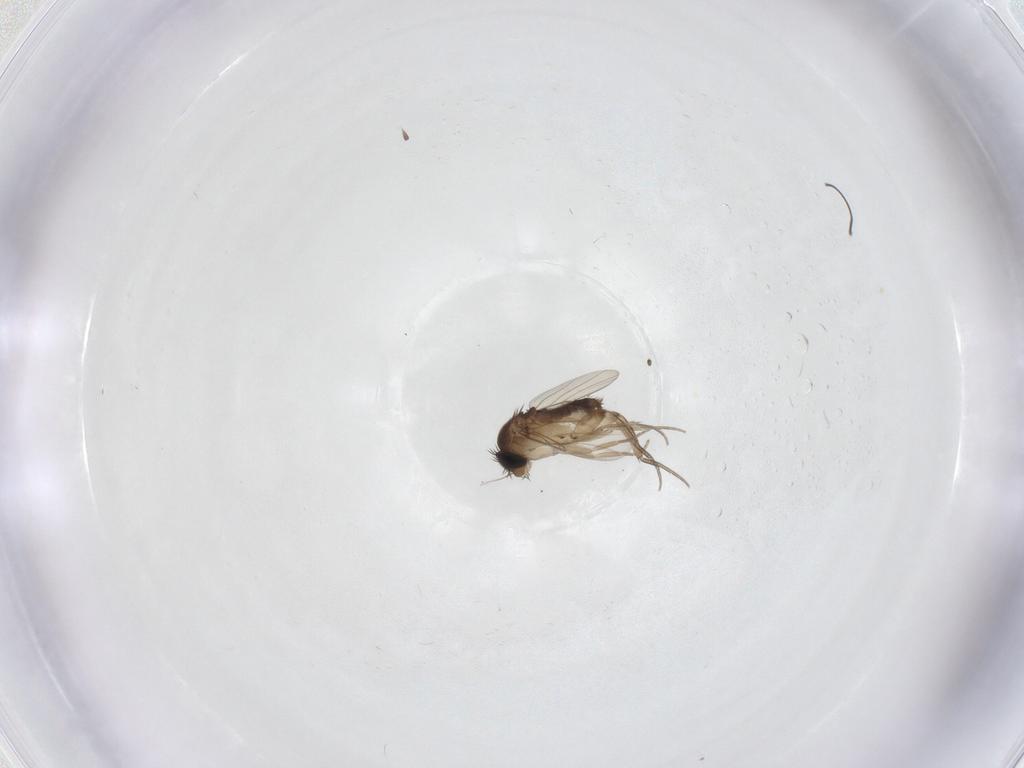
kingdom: Animalia
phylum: Arthropoda
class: Insecta
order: Diptera
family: Phoridae
